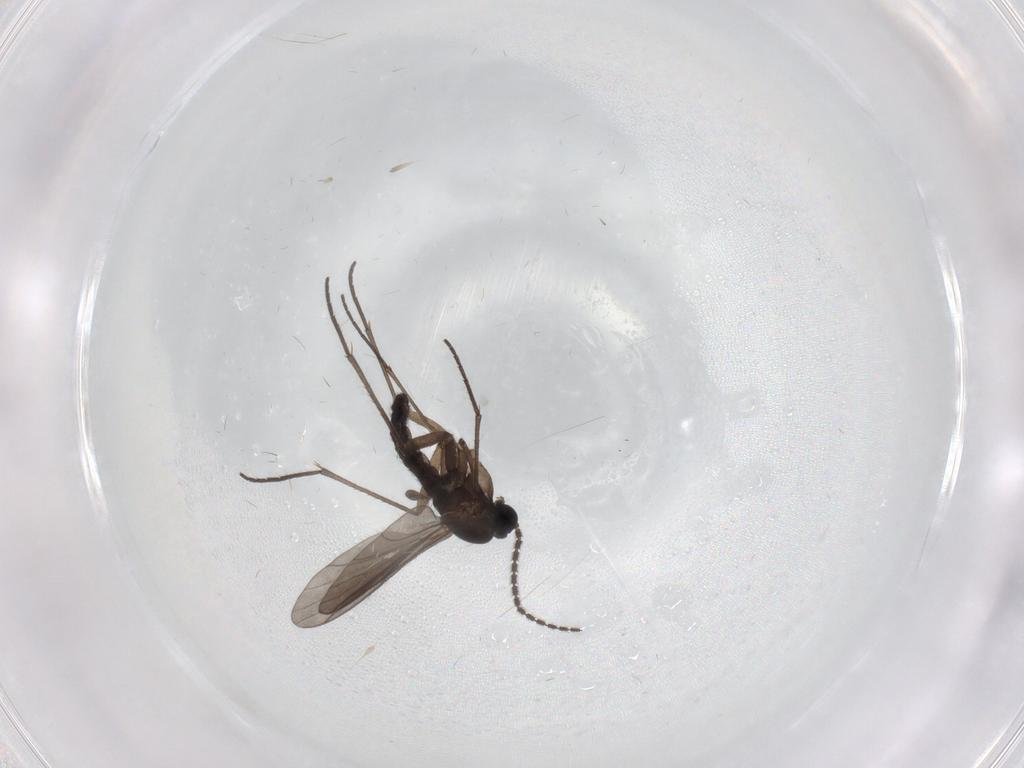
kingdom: Animalia
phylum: Arthropoda
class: Insecta
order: Diptera
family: Sciaridae
